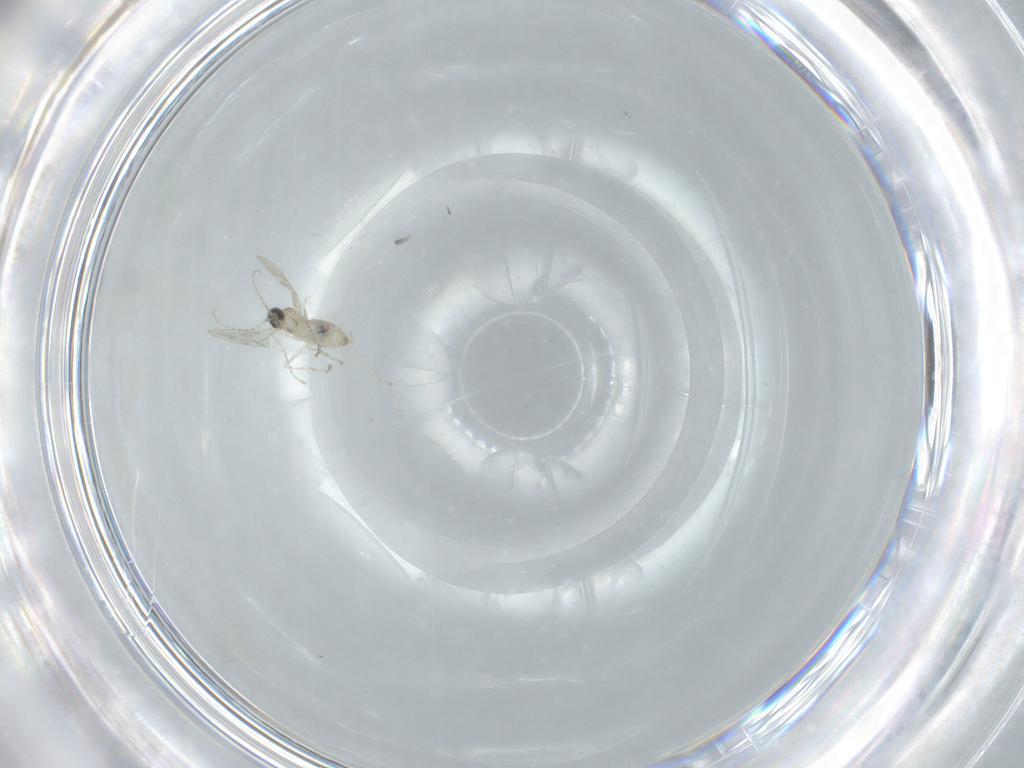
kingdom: Animalia
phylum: Arthropoda
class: Insecta
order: Diptera
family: Cecidomyiidae
